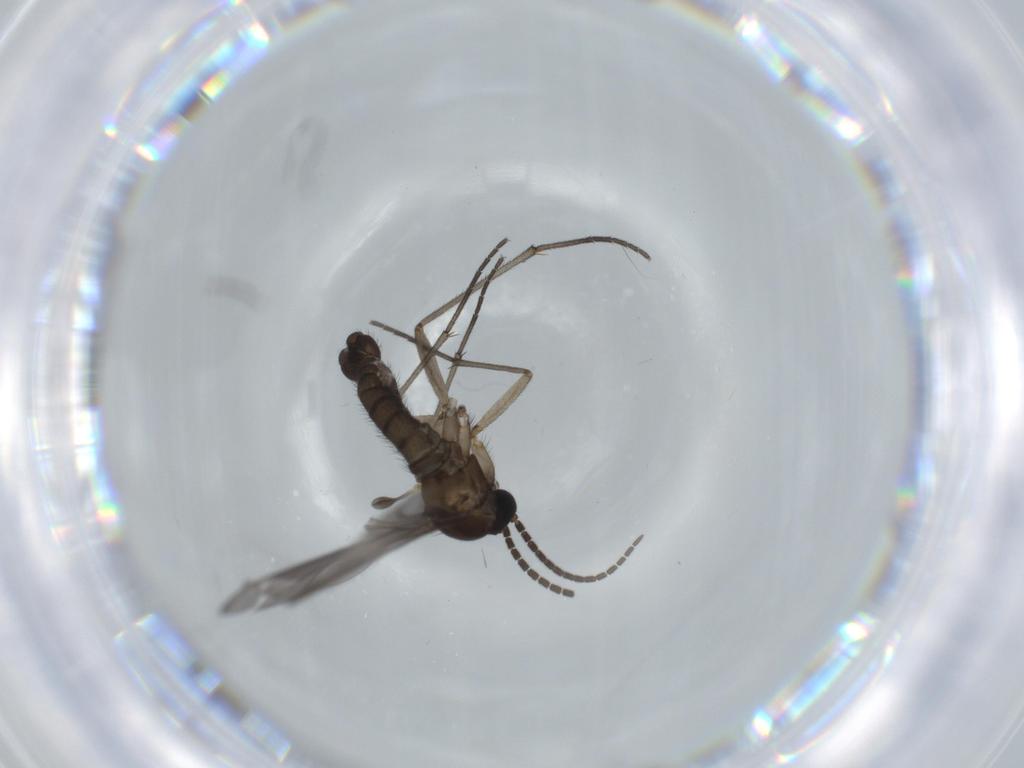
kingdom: Animalia
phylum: Arthropoda
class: Insecta
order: Diptera
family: Sciaridae
